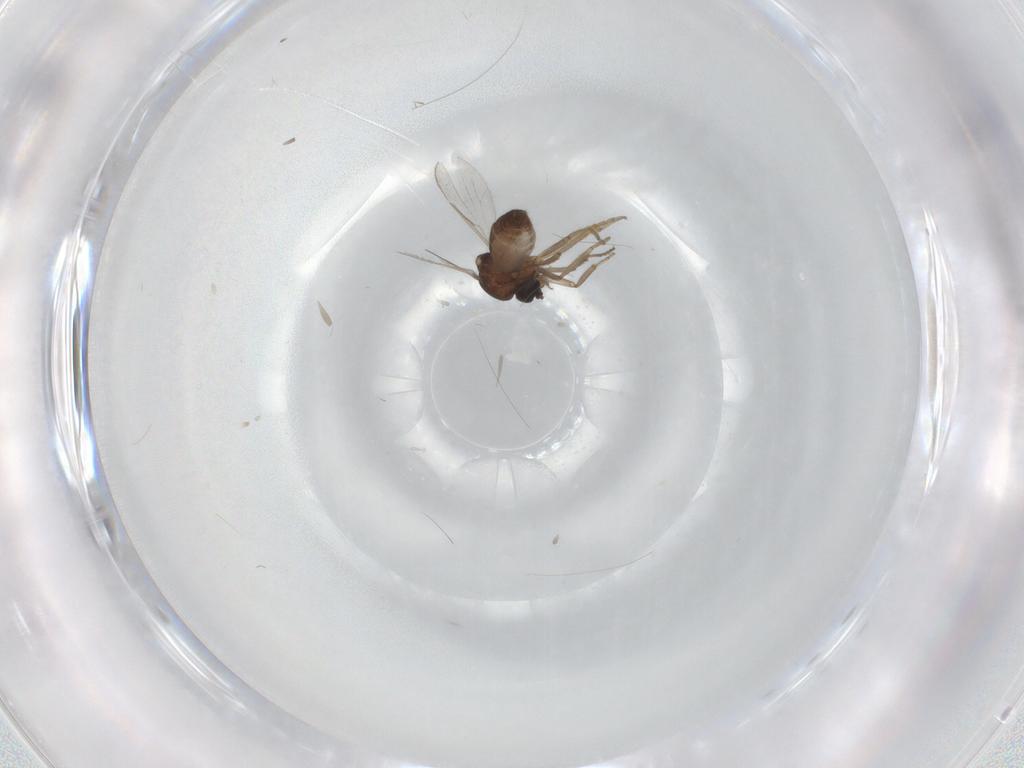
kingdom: Animalia
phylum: Arthropoda
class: Insecta
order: Diptera
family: Ceratopogonidae
